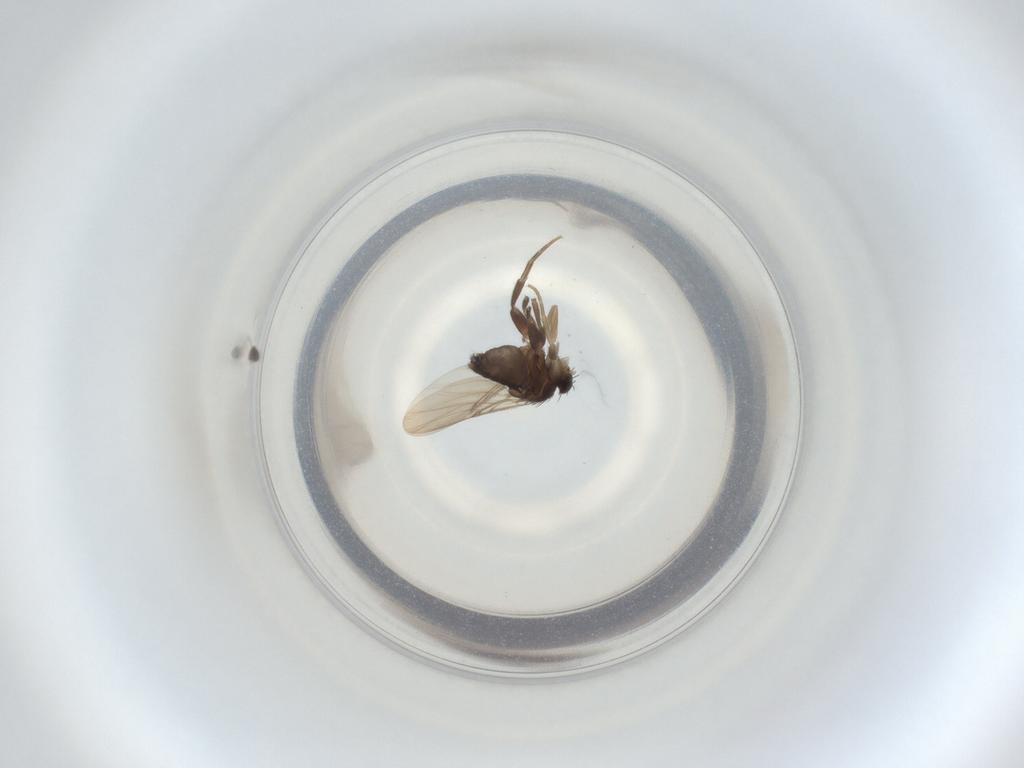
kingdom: Animalia
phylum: Arthropoda
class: Insecta
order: Diptera
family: Phoridae
